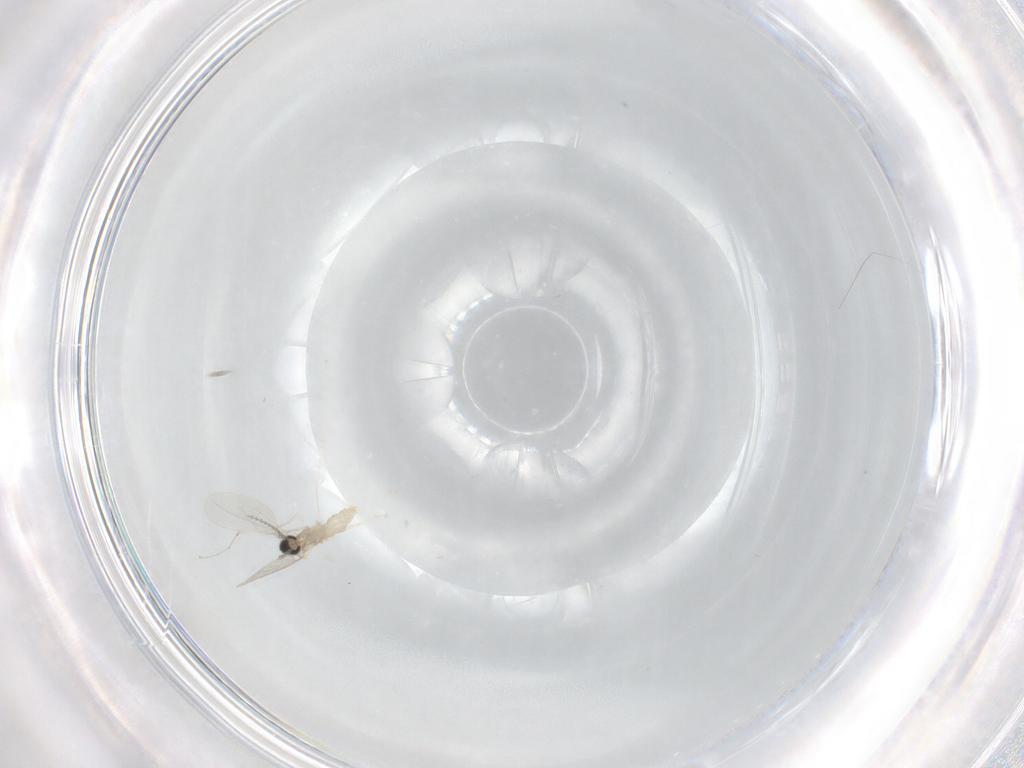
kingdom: Animalia
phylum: Arthropoda
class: Insecta
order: Diptera
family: Cecidomyiidae
